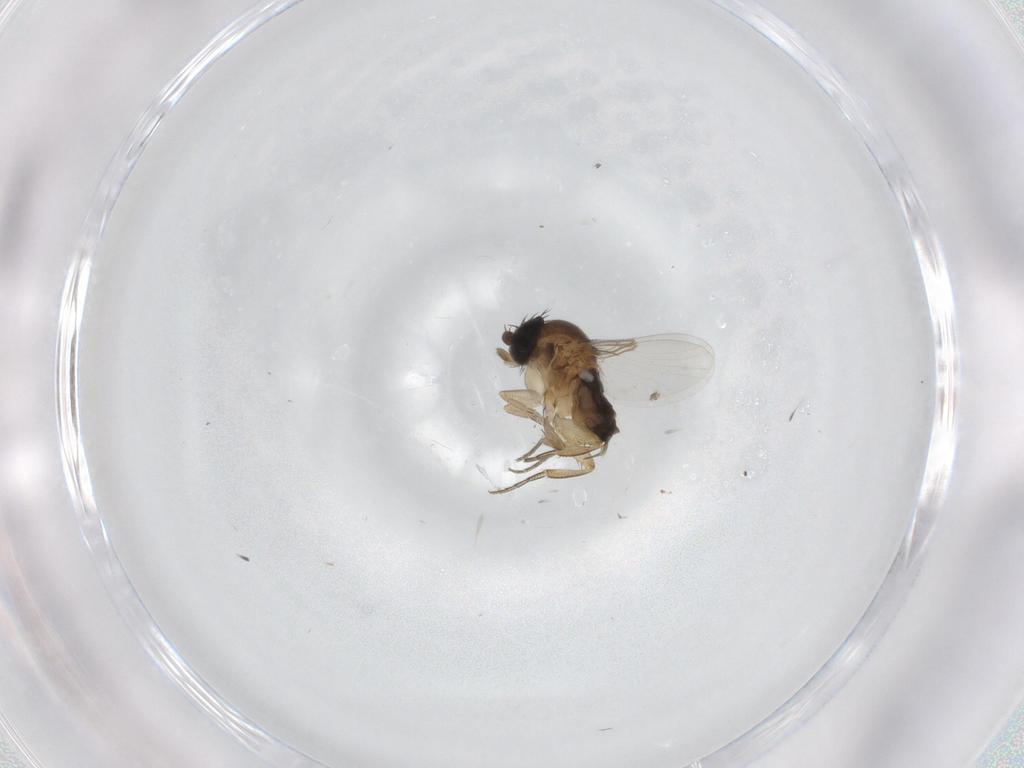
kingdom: Animalia
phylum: Arthropoda
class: Insecta
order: Diptera
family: Phoridae
